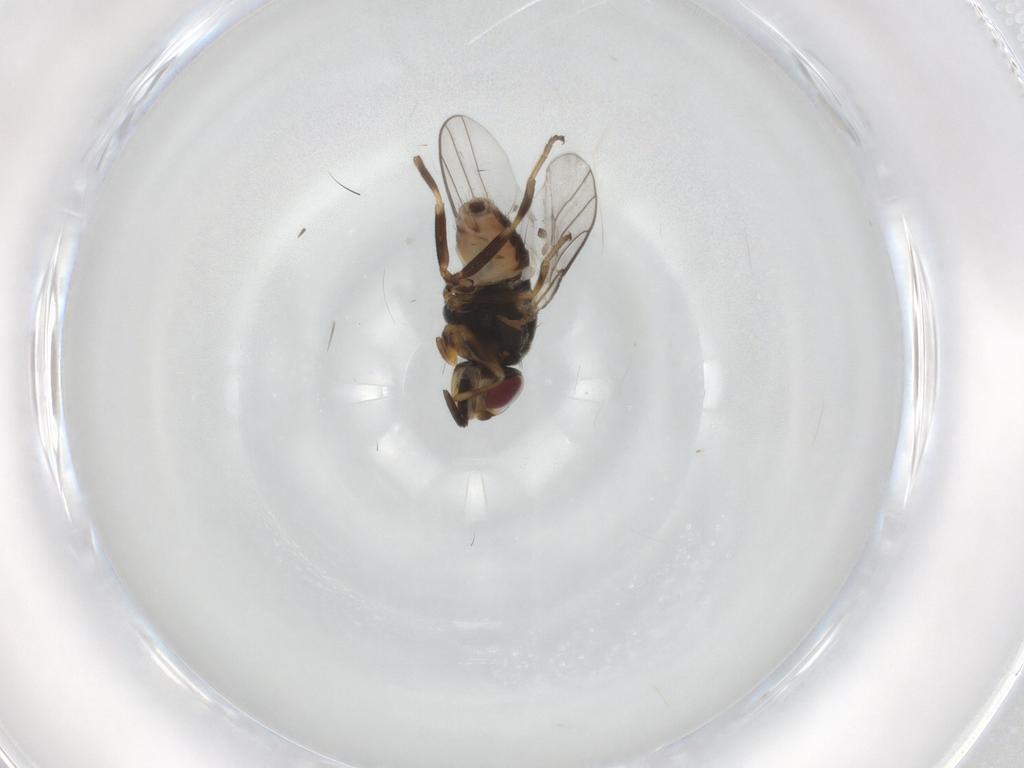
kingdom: Animalia
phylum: Arthropoda
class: Insecta
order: Diptera
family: Chloropidae
